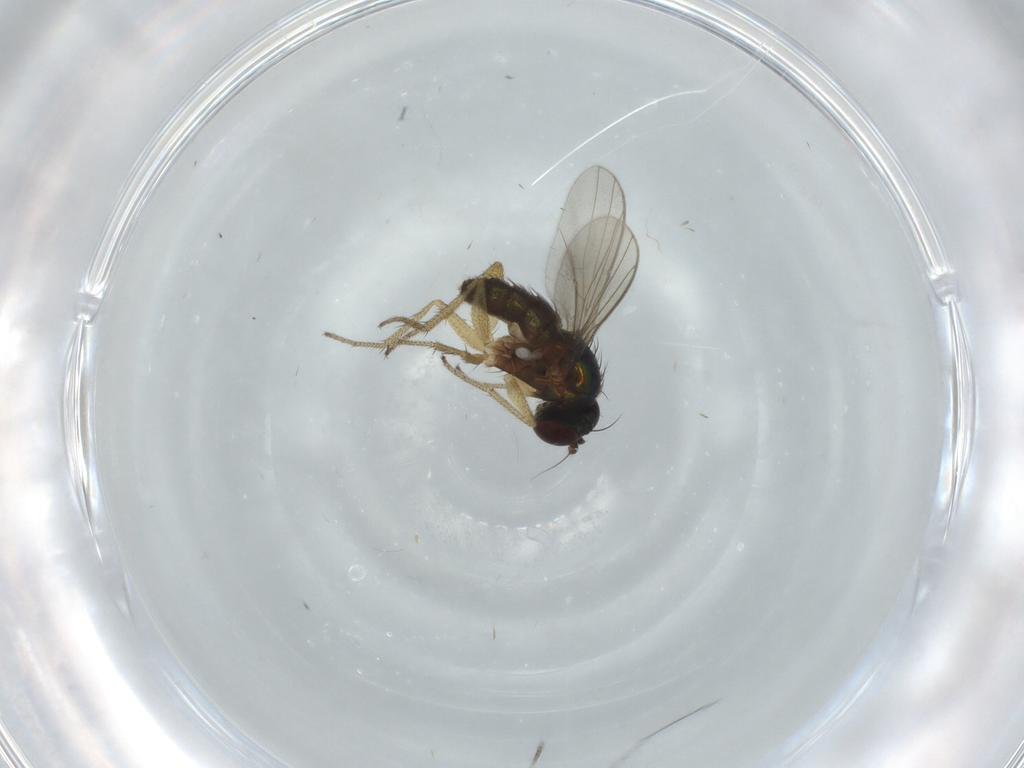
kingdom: Animalia
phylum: Arthropoda
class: Insecta
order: Diptera
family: Dolichopodidae
